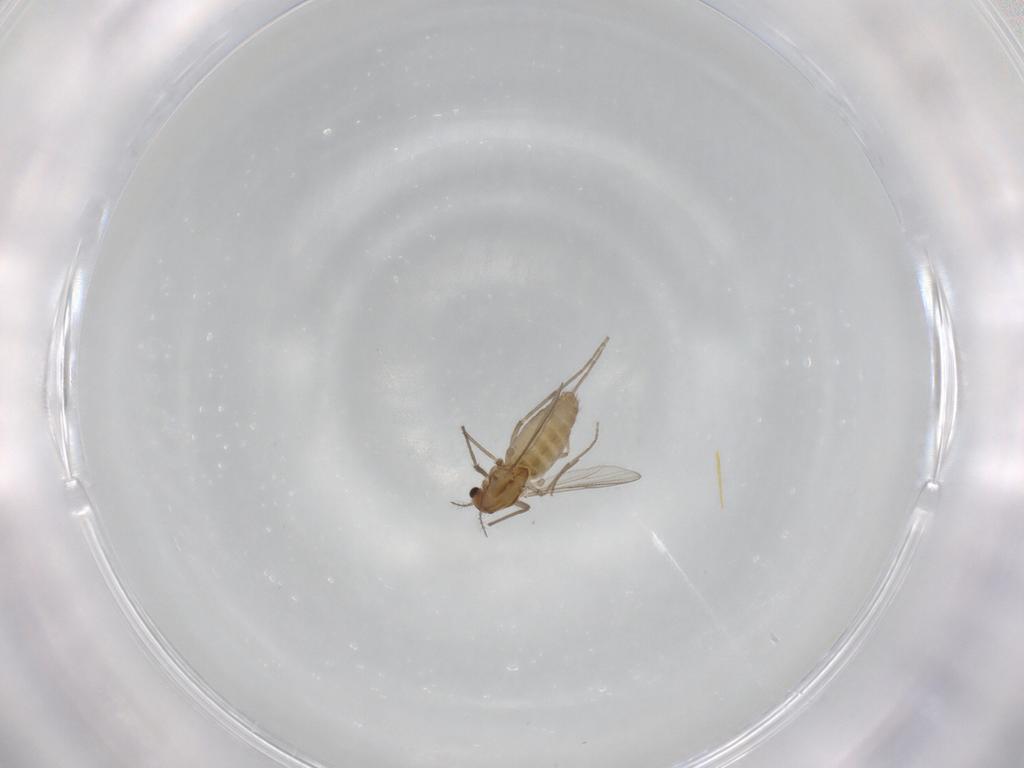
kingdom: Animalia
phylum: Arthropoda
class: Insecta
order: Diptera
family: Chironomidae
